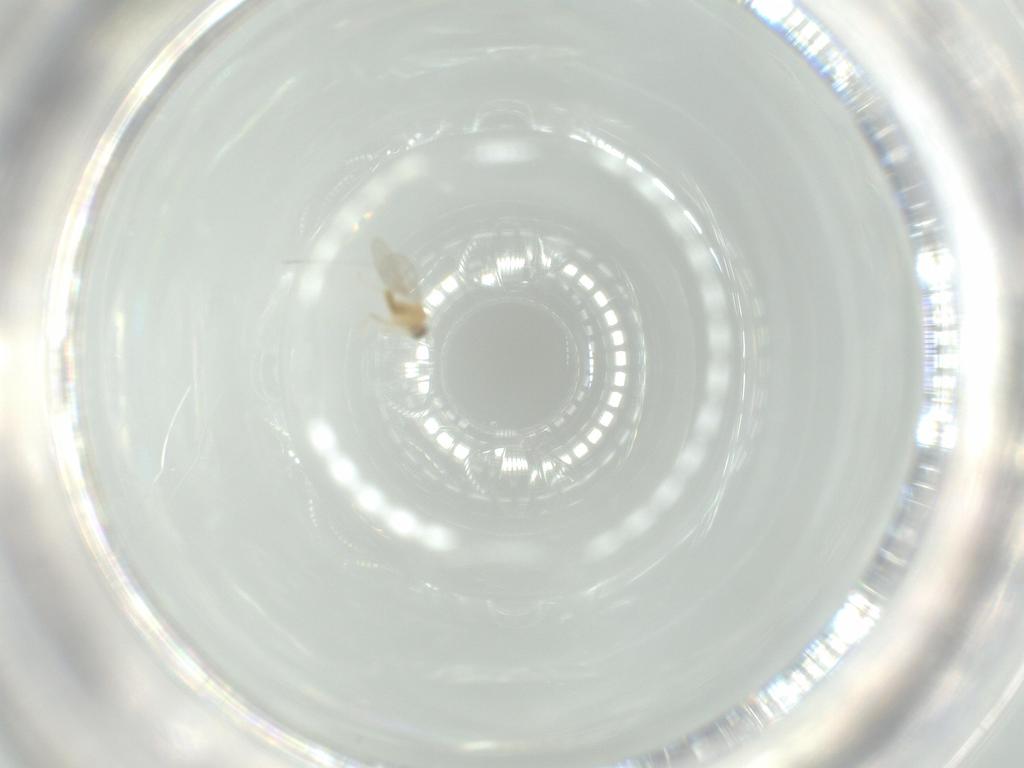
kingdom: Animalia
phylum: Arthropoda
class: Insecta
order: Diptera
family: Cecidomyiidae
